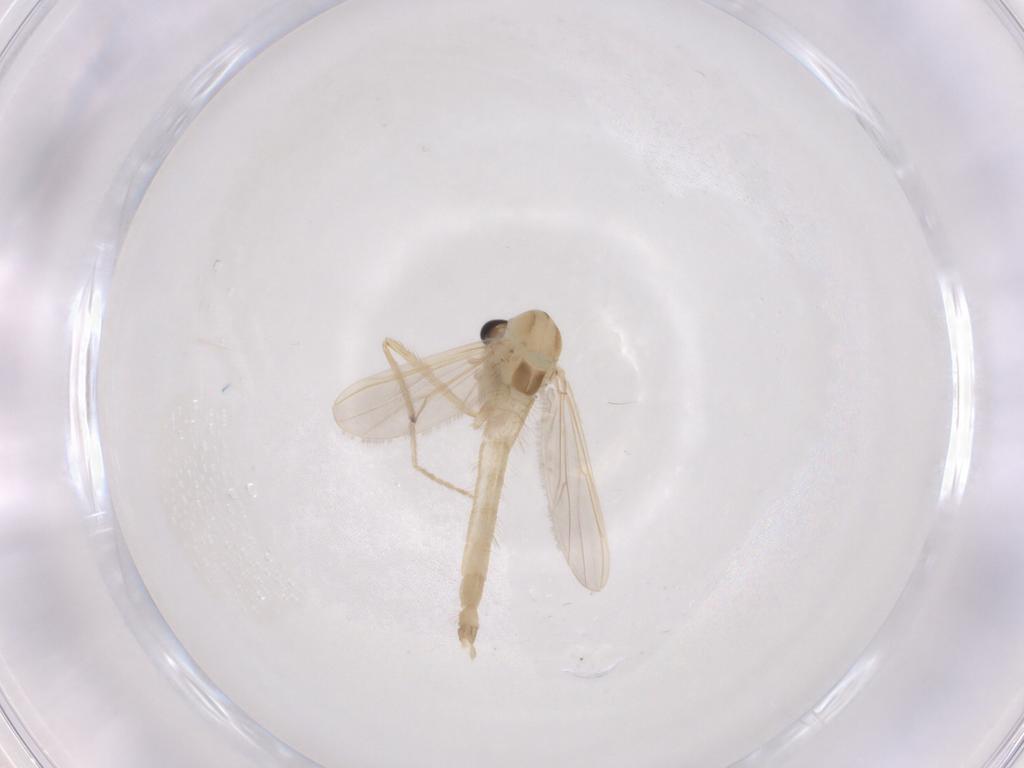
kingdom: Animalia
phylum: Arthropoda
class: Insecta
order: Diptera
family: Chironomidae
